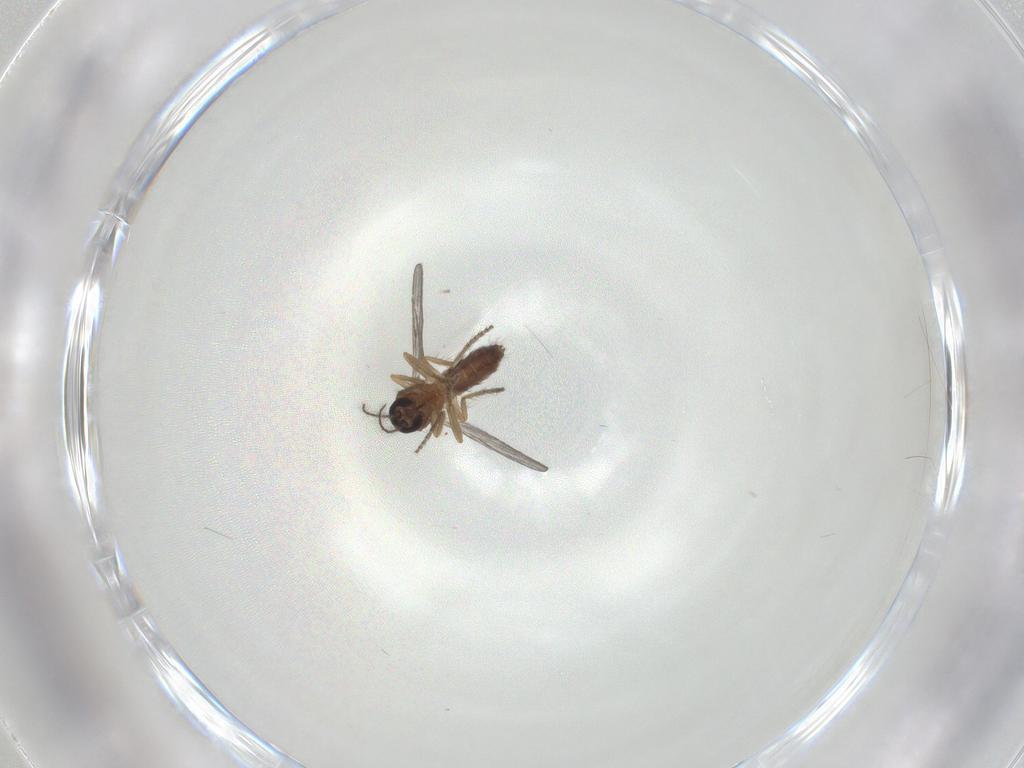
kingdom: Animalia
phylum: Arthropoda
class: Insecta
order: Diptera
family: Ceratopogonidae
